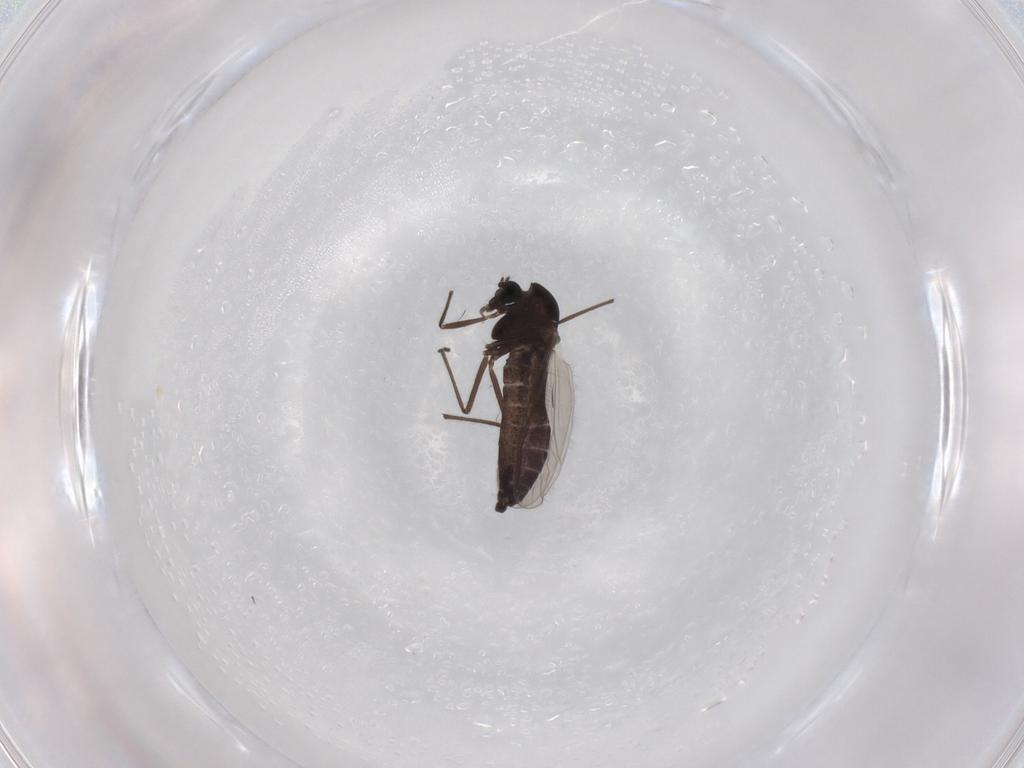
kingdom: Animalia
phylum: Arthropoda
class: Insecta
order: Diptera
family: Chironomidae
